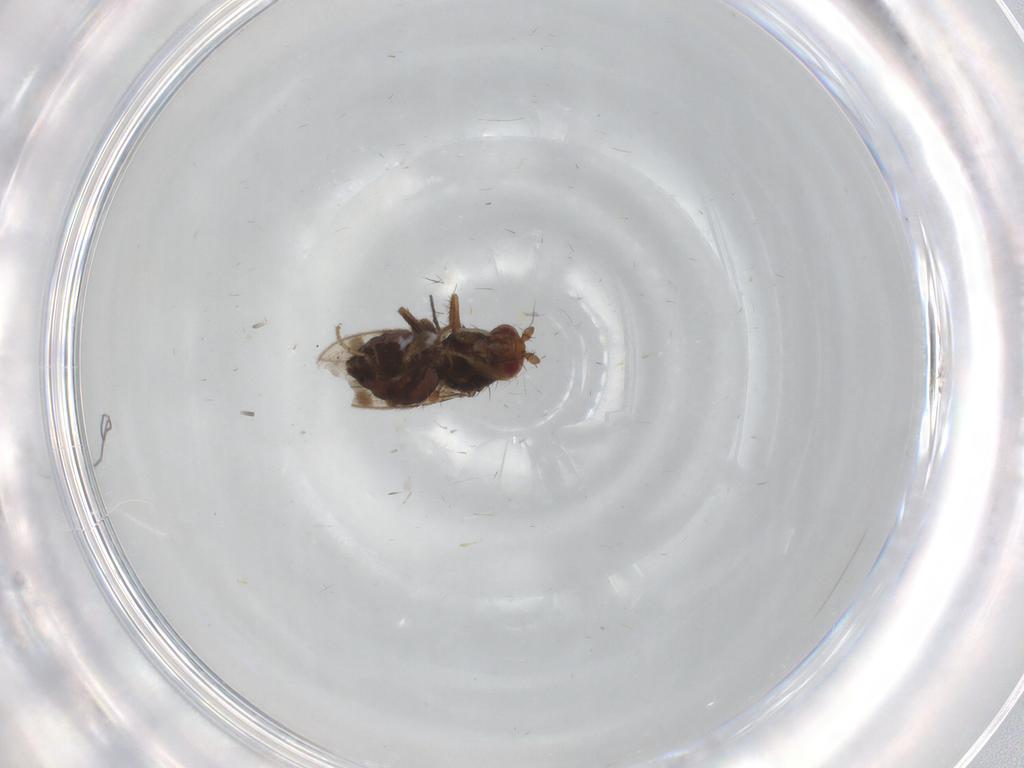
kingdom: Animalia
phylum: Arthropoda
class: Insecta
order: Diptera
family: Sphaeroceridae
